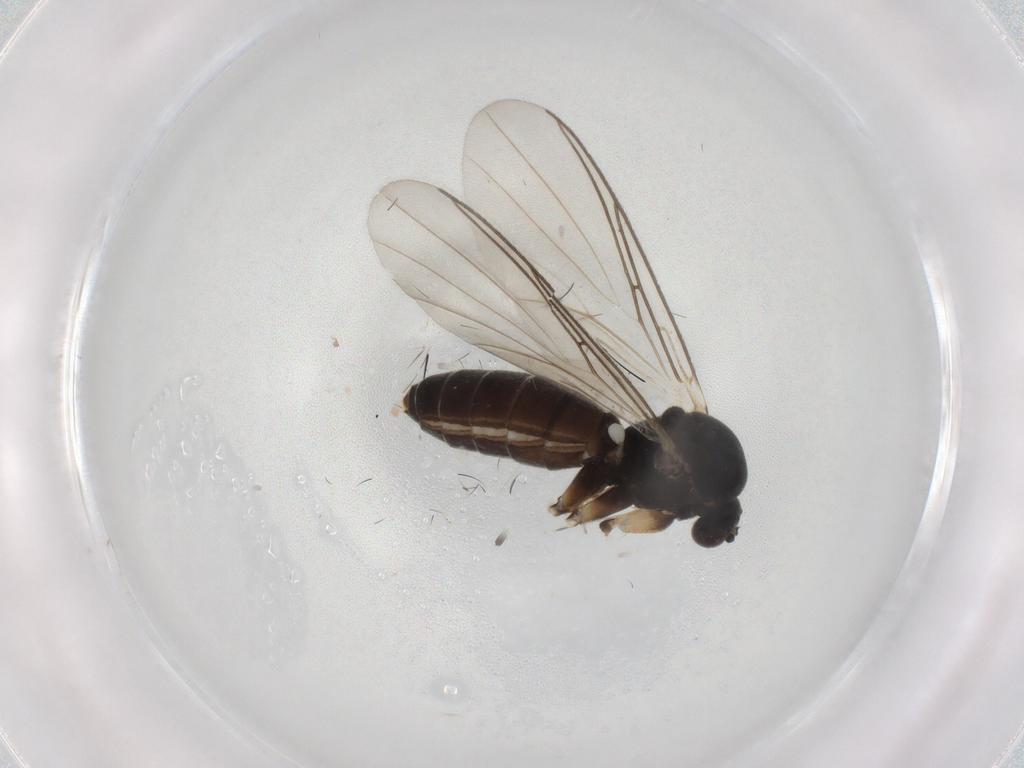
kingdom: Animalia
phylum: Arthropoda
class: Insecta
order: Diptera
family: Mycetophilidae
